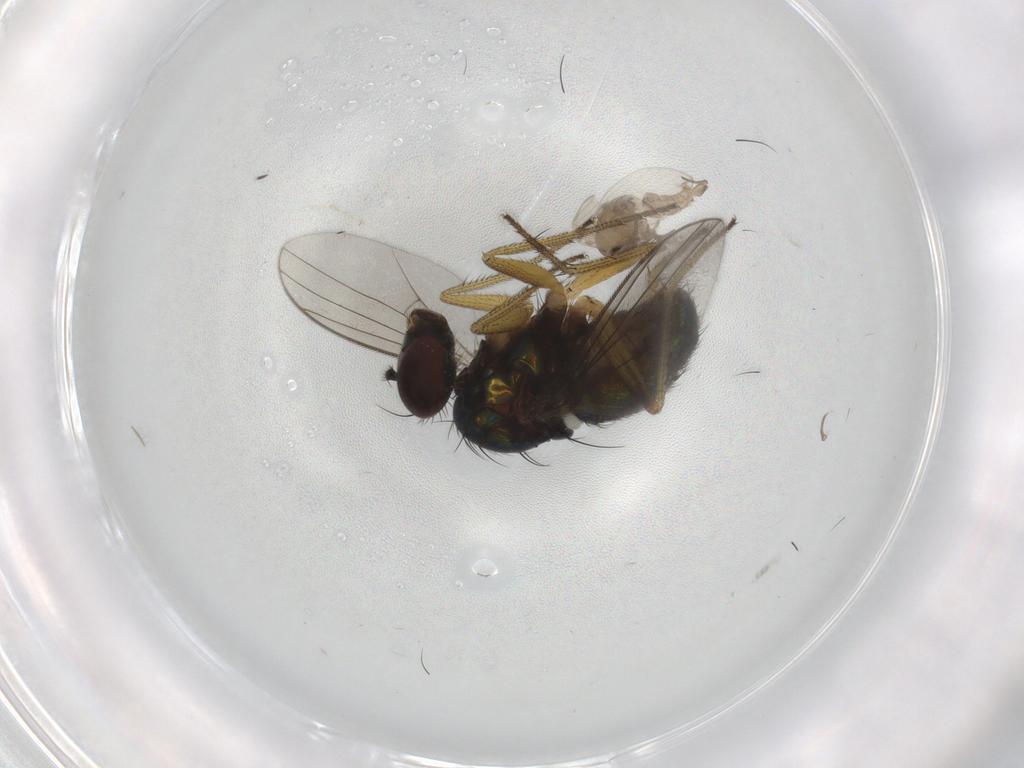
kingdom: Animalia
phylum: Arthropoda
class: Insecta
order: Diptera
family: Dolichopodidae
